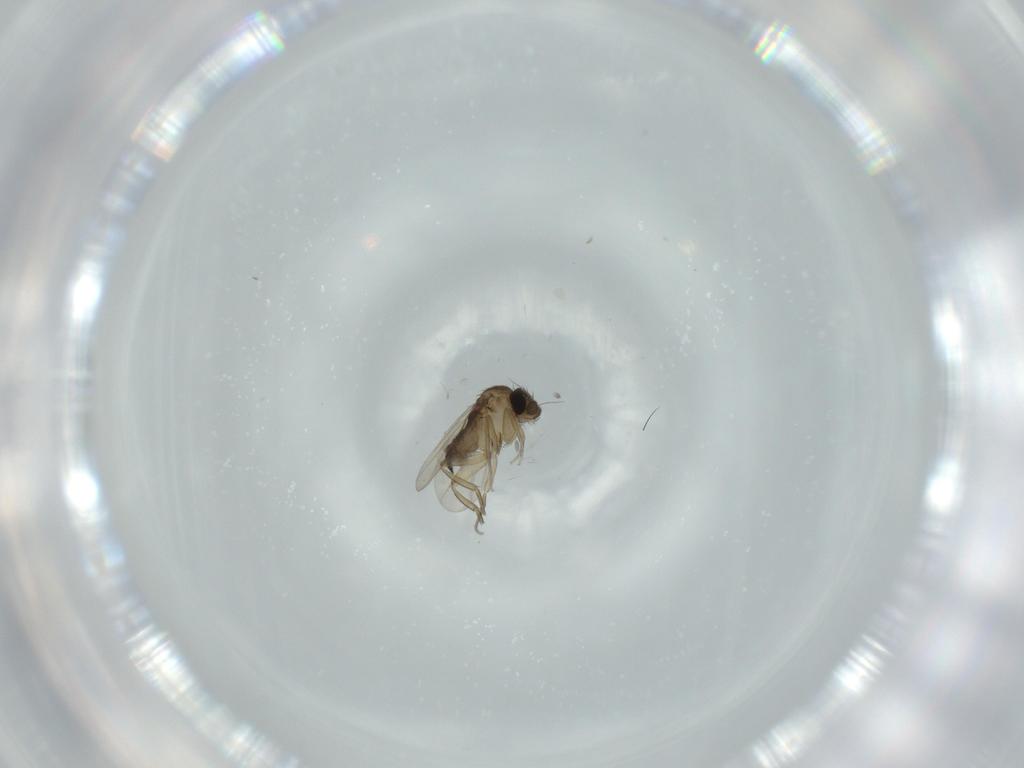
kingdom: Animalia
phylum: Arthropoda
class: Insecta
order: Diptera
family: Phoridae
